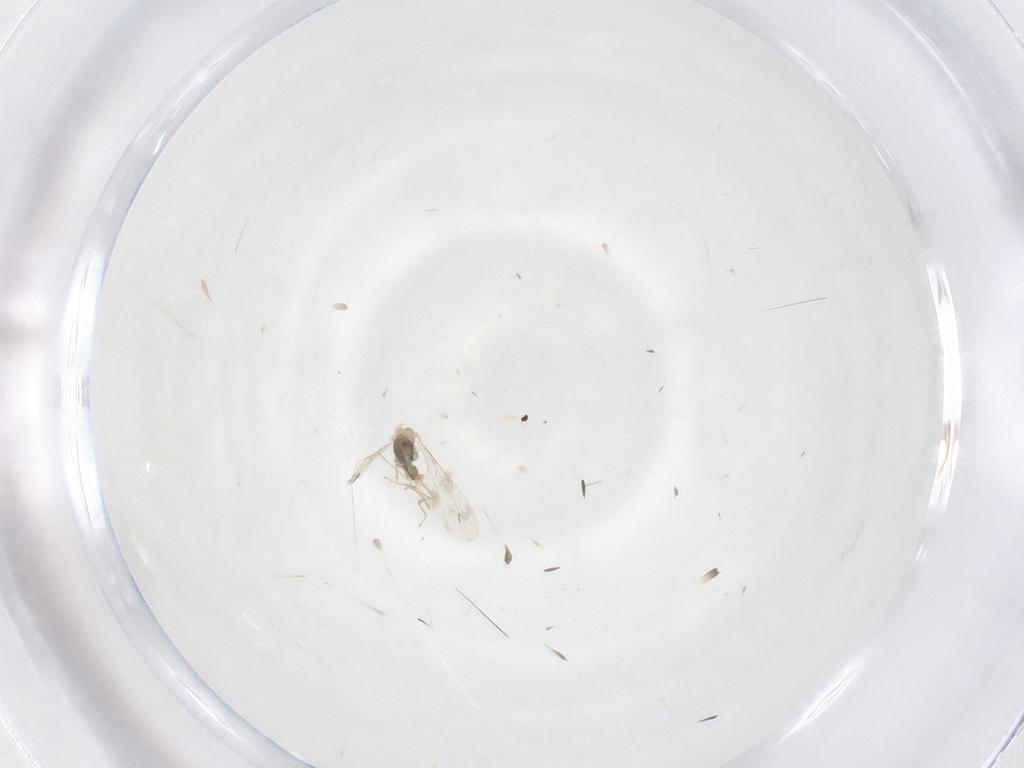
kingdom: Animalia
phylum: Arthropoda
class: Insecta
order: Diptera
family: Cecidomyiidae
